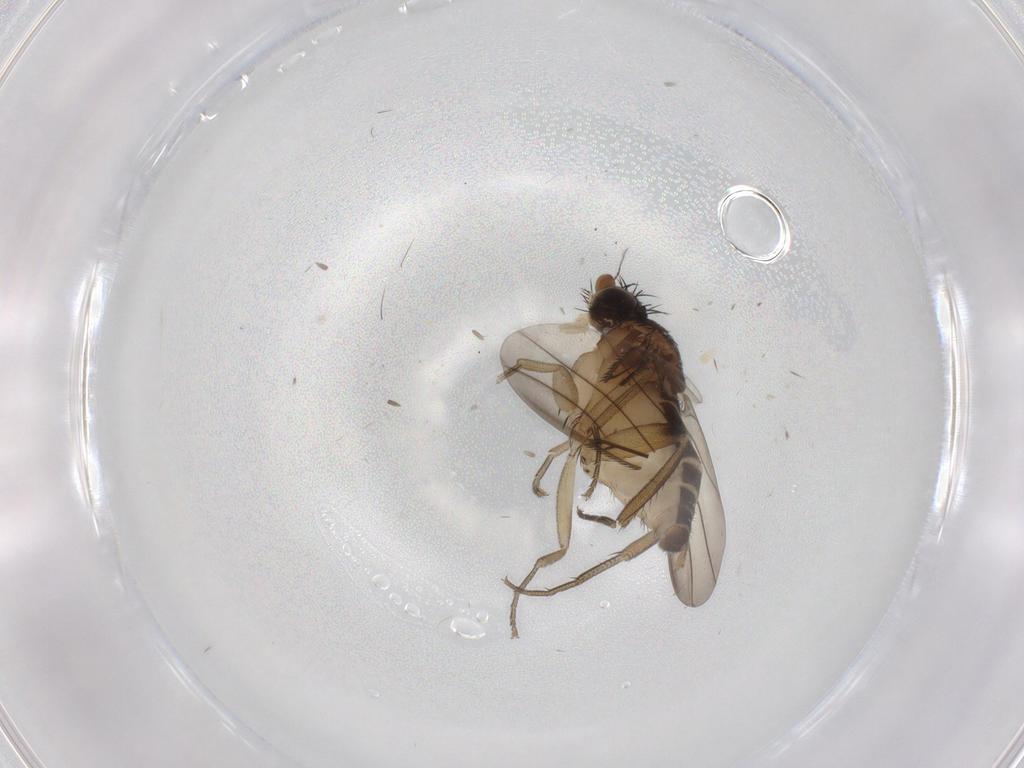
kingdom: Animalia
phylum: Arthropoda
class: Insecta
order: Diptera
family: Phoridae
